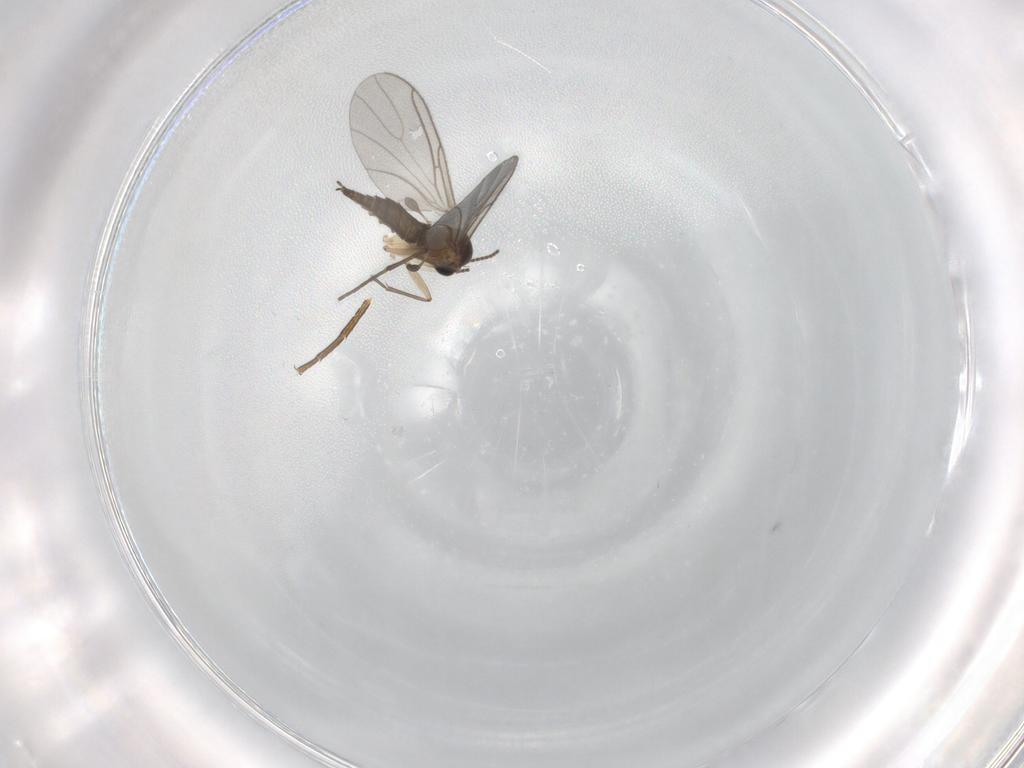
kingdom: Animalia
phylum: Arthropoda
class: Insecta
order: Diptera
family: Sciaridae
